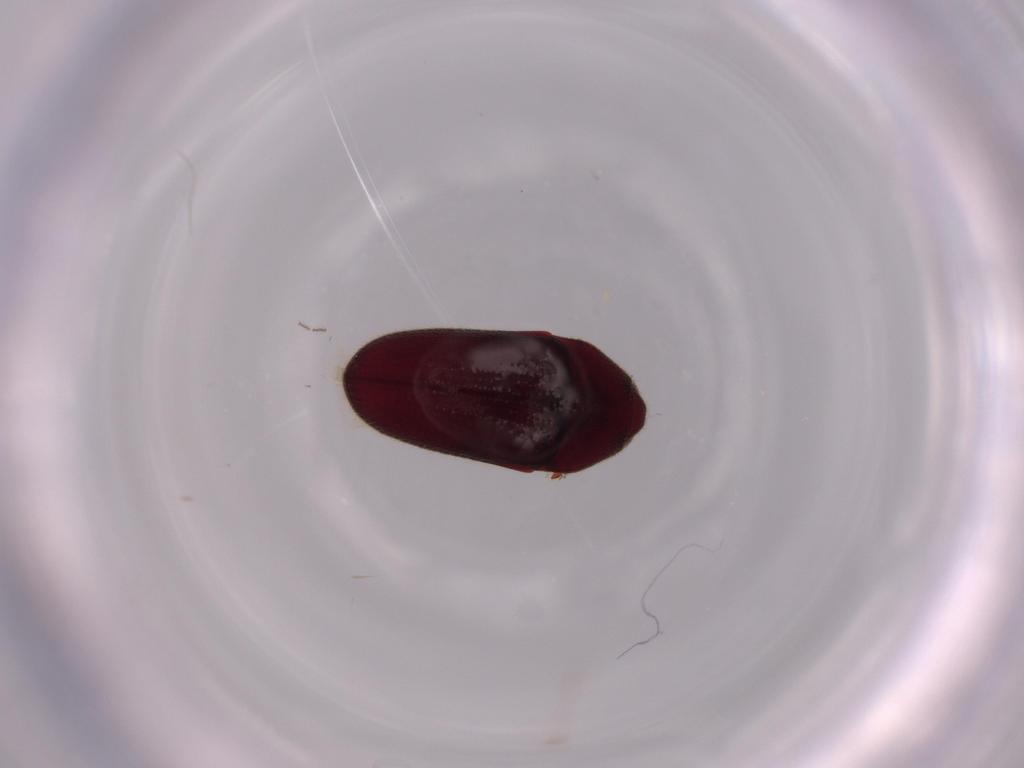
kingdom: Animalia
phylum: Arthropoda
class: Insecta
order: Coleoptera
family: Chrysomelidae
